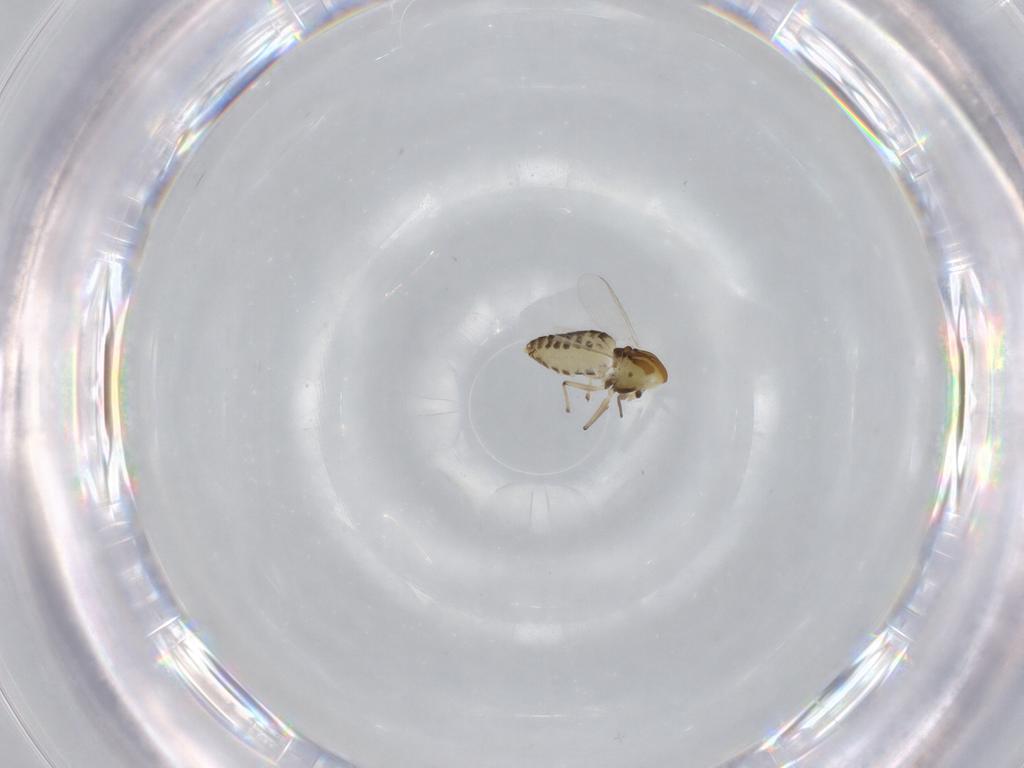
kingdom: Animalia
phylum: Arthropoda
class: Insecta
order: Diptera
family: Chironomidae
